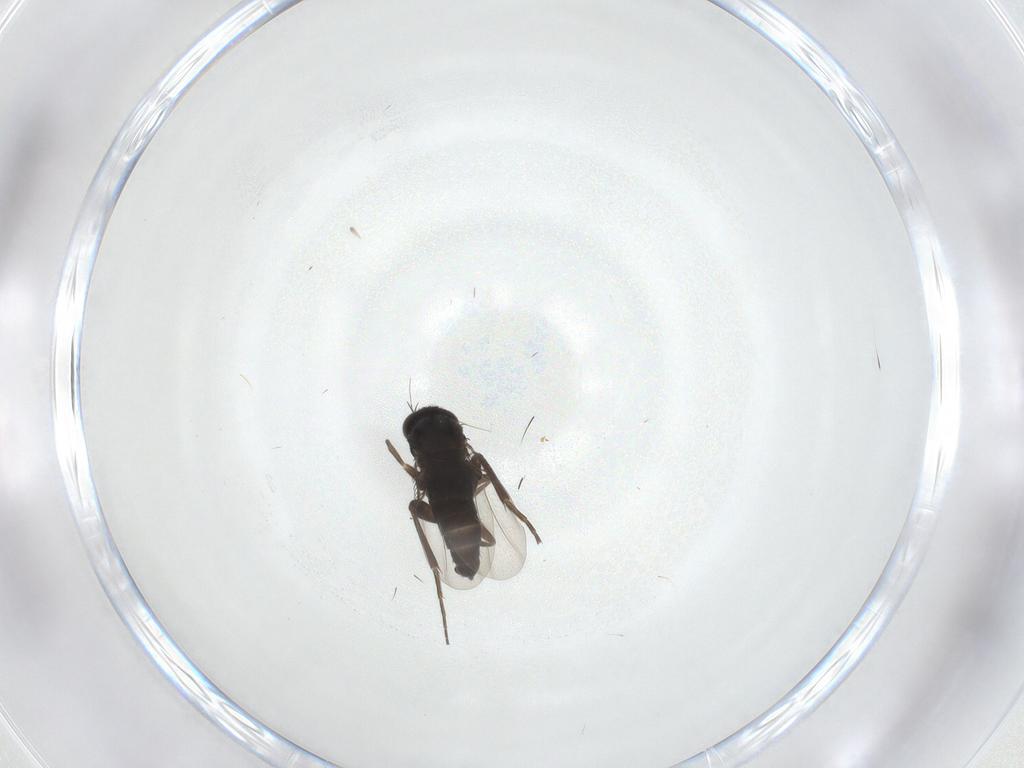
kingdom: Animalia
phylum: Arthropoda
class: Insecta
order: Diptera
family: Phoridae
